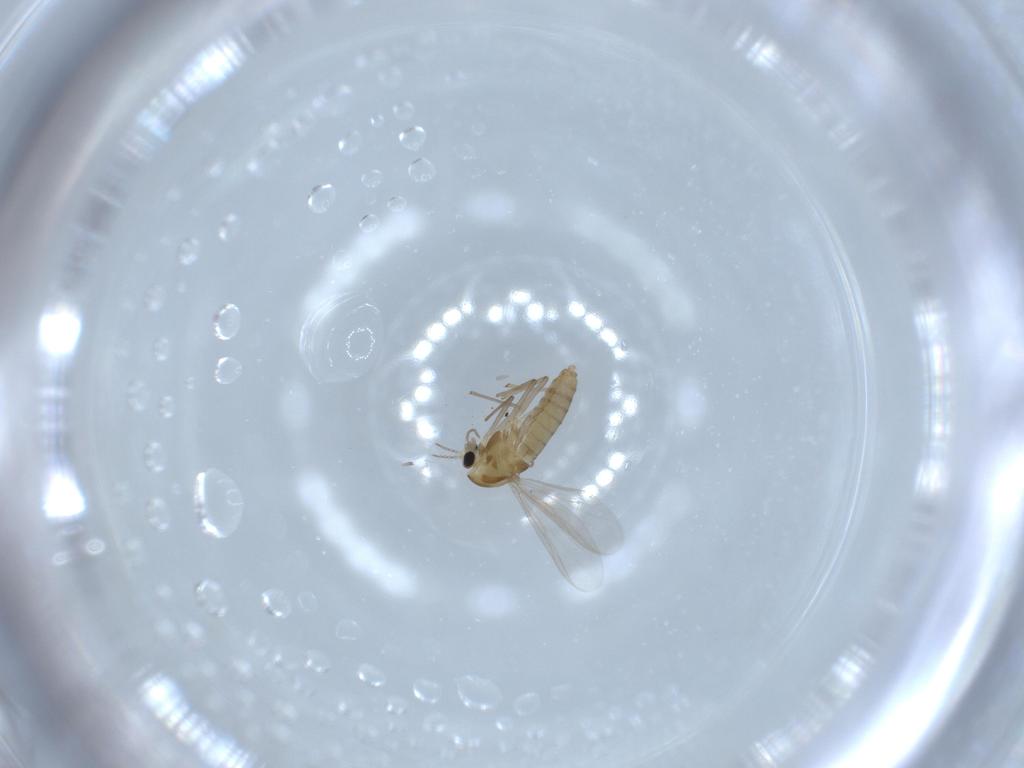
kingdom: Animalia
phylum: Arthropoda
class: Insecta
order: Diptera
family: Chironomidae
